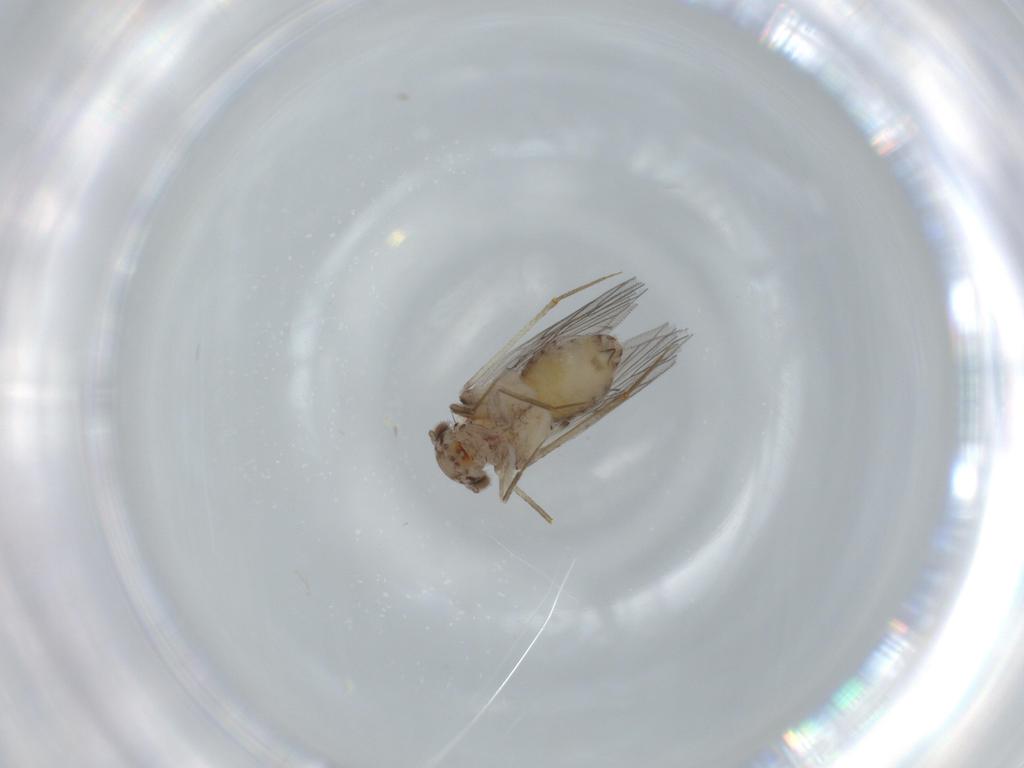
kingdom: Animalia
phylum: Arthropoda
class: Insecta
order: Psocodea
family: Lepidopsocidae
